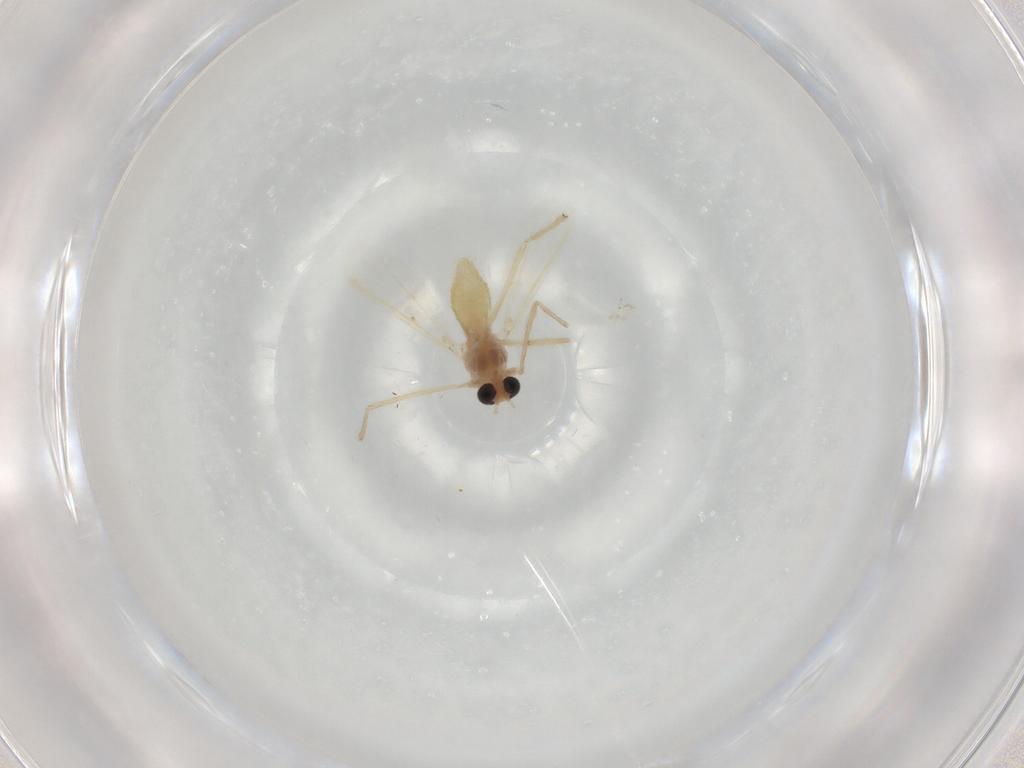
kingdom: Animalia
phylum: Arthropoda
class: Insecta
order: Diptera
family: Chironomidae
